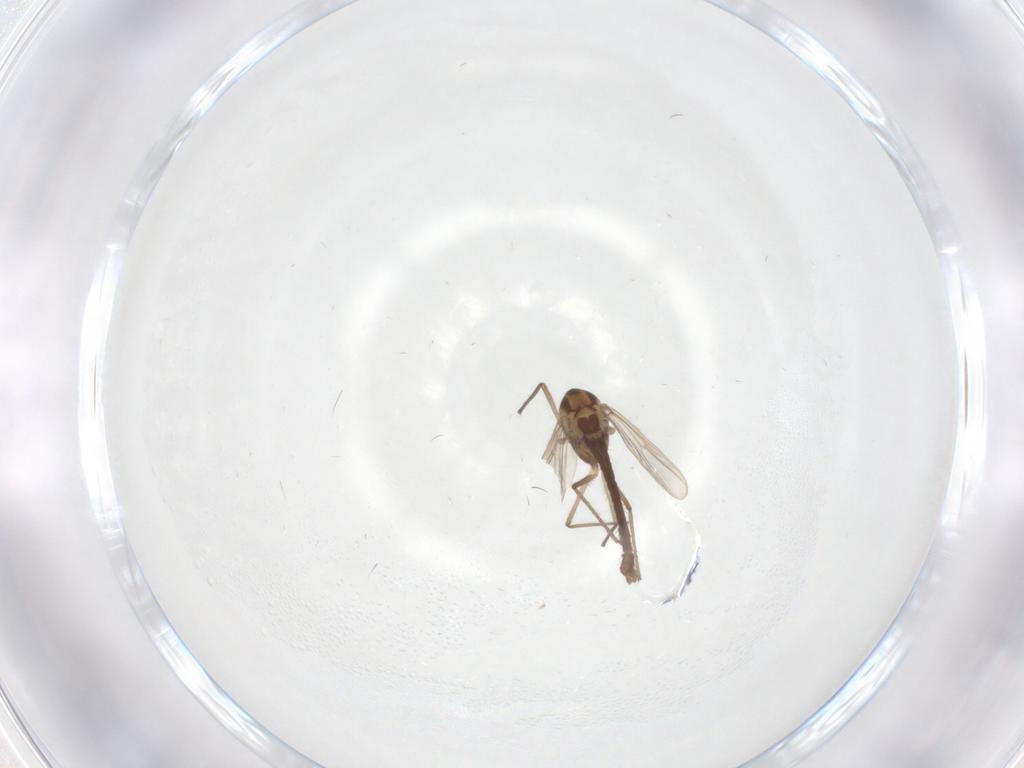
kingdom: Animalia
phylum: Arthropoda
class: Insecta
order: Diptera
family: Chironomidae
